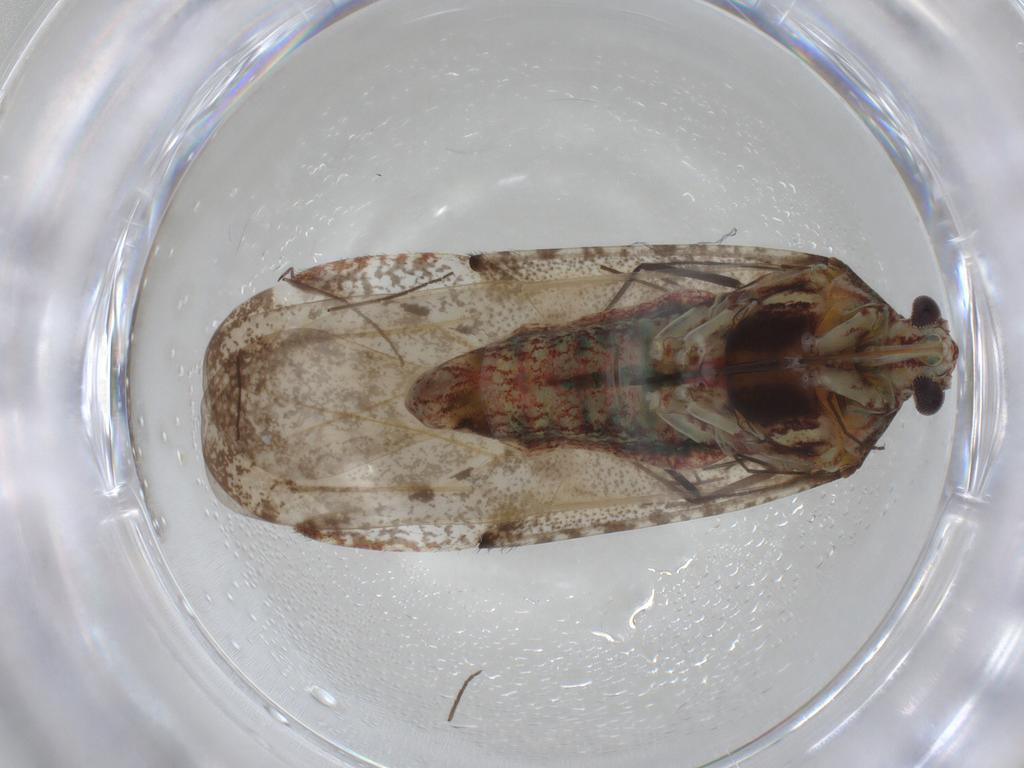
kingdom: Animalia
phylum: Arthropoda
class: Insecta
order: Hemiptera
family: Miridae
